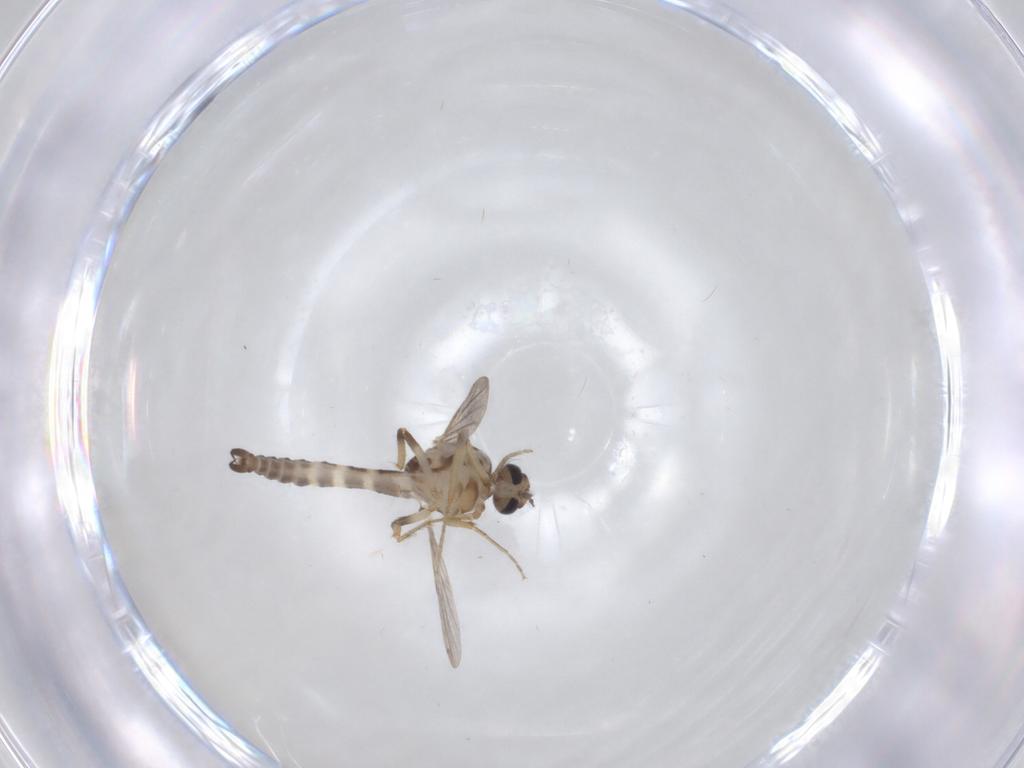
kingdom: Animalia
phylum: Arthropoda
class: Insecta
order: Diptera
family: Ceratopogonidae
